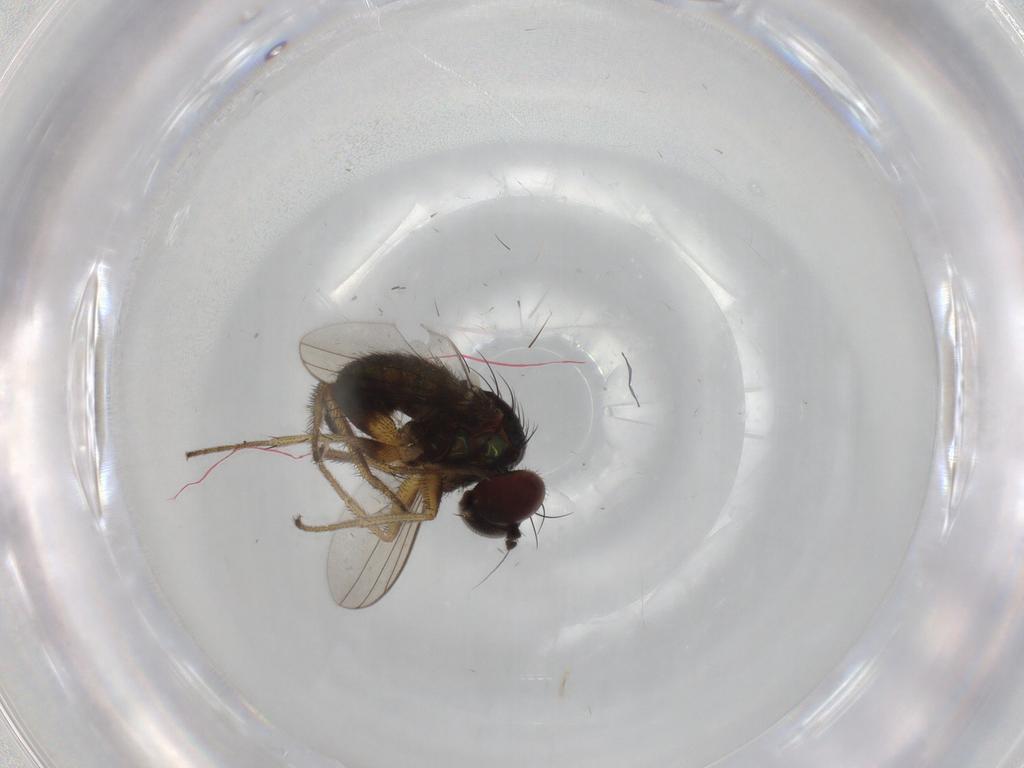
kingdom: Animalia
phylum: Arthropoda
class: Insecta
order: Diptera
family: Dolichopodidae
